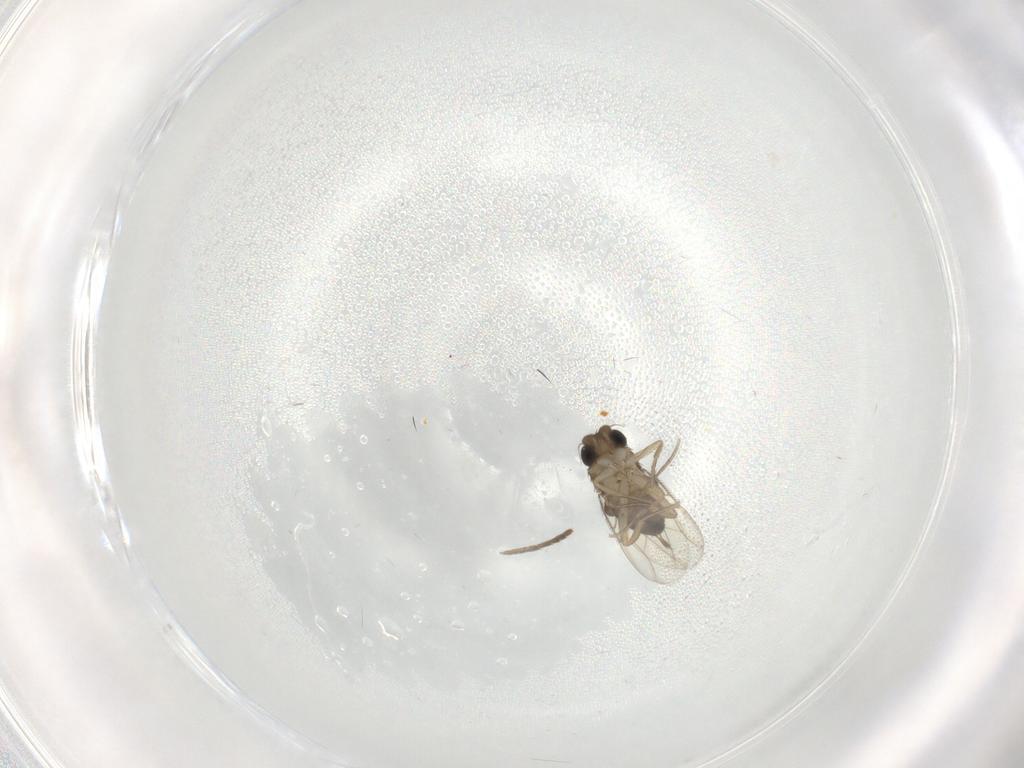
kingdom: Animalia
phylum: Arthropoda
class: Insecta
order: Diptera
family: Psychodidae
